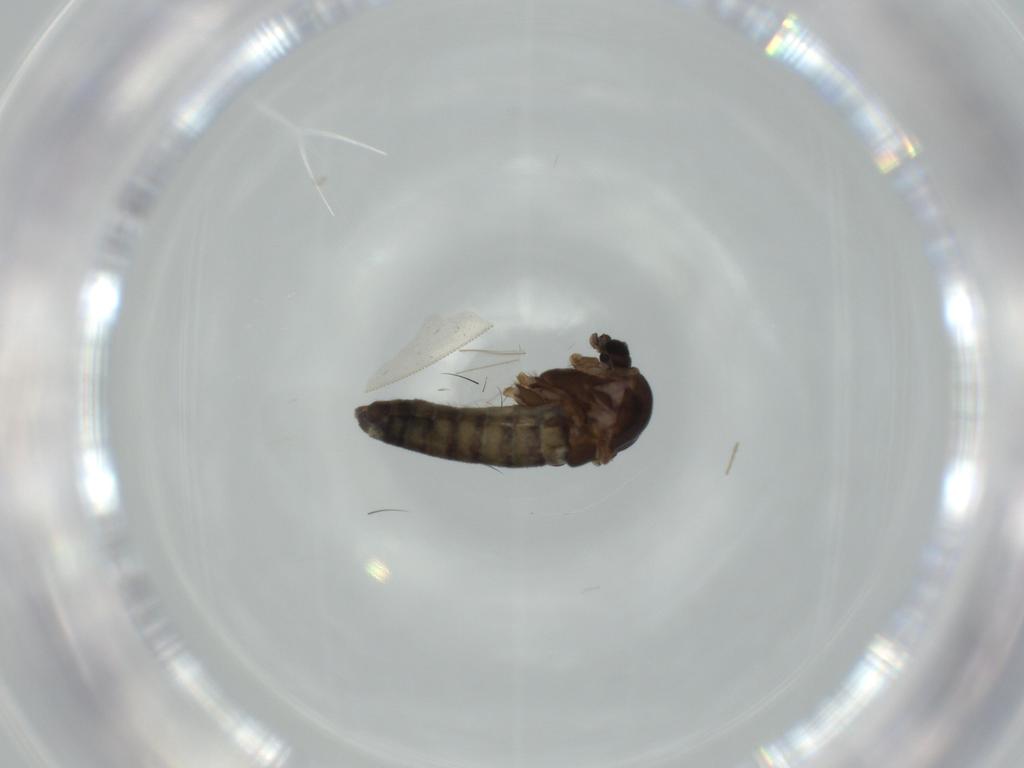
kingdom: Animalia
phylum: Arthropoda
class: Insecta
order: Diptera
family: Chironomidae
